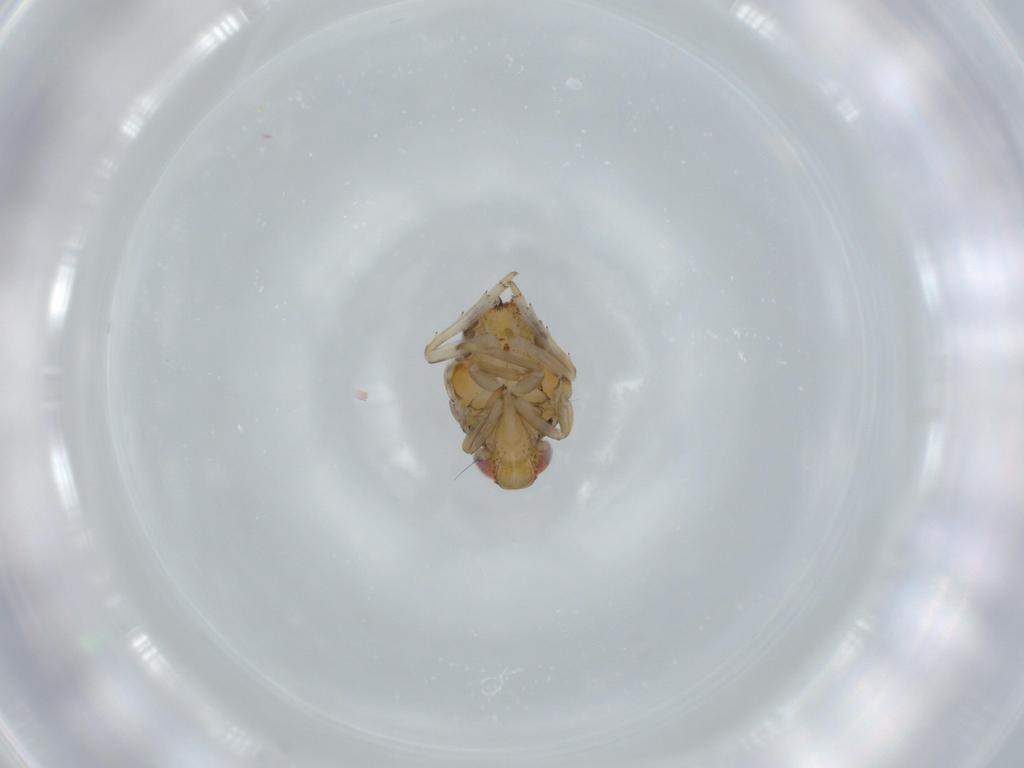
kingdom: Animalia
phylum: Arthropoda
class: Insecta
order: Hemiptera
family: Issidae
